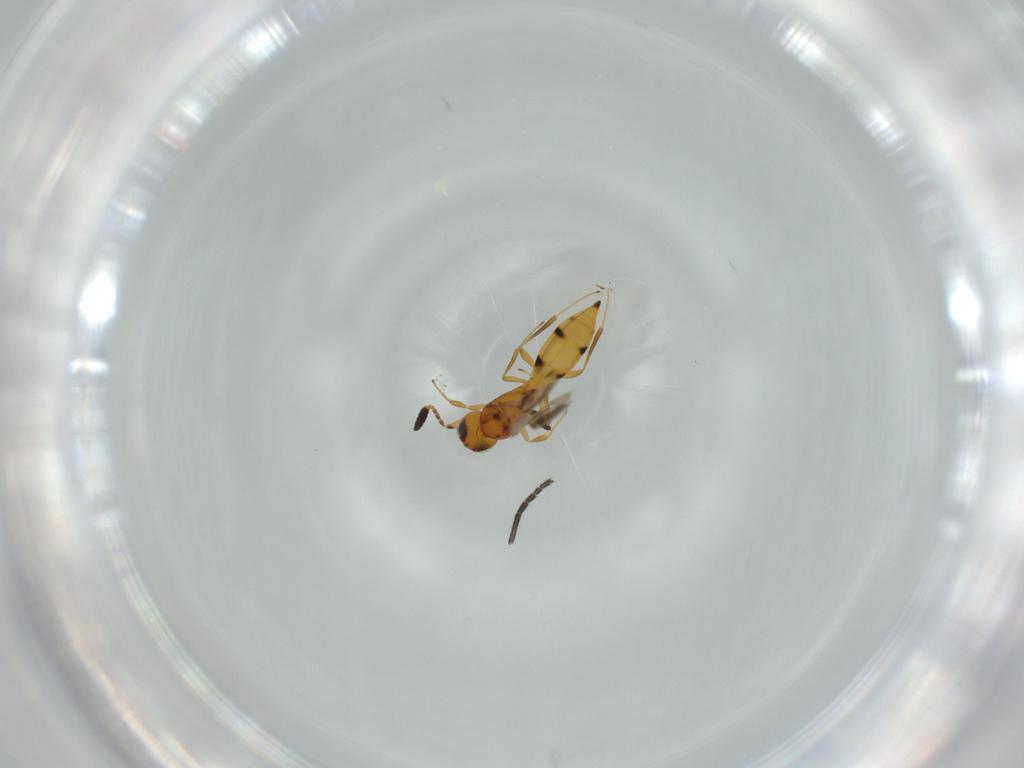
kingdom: Animalia
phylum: Arthropoda
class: Insecta
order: Hymenoptera
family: Scelionidae
